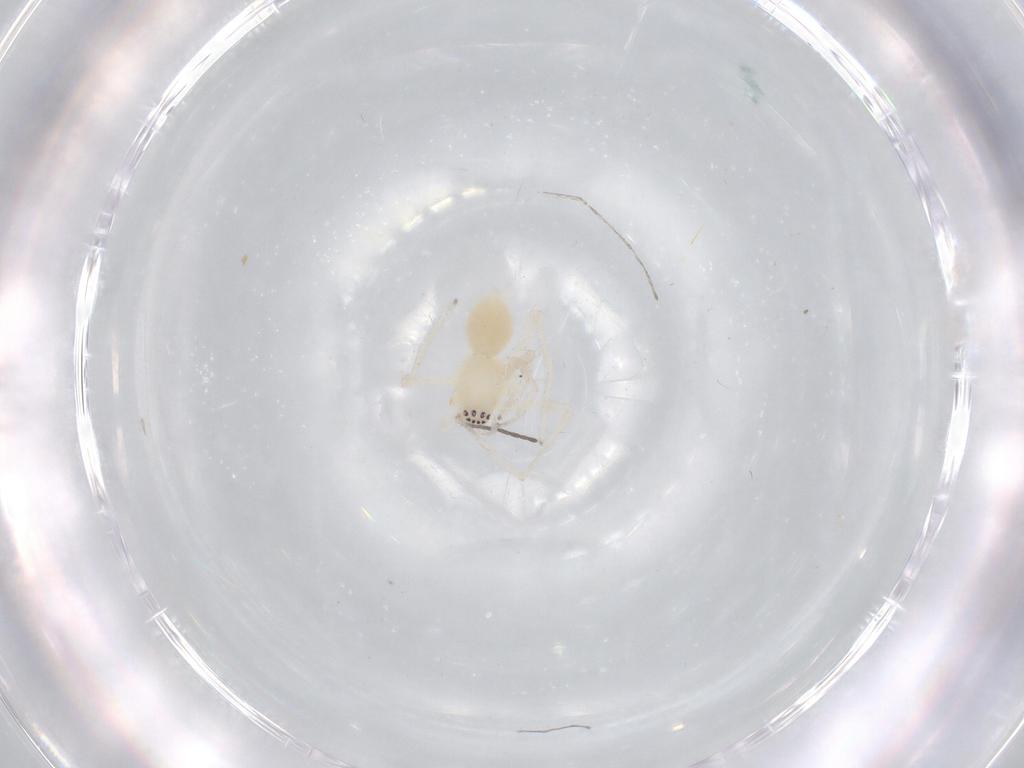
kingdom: Animalia
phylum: Arthropoda
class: Arachnida
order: Araneae
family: Anyphaenidae
